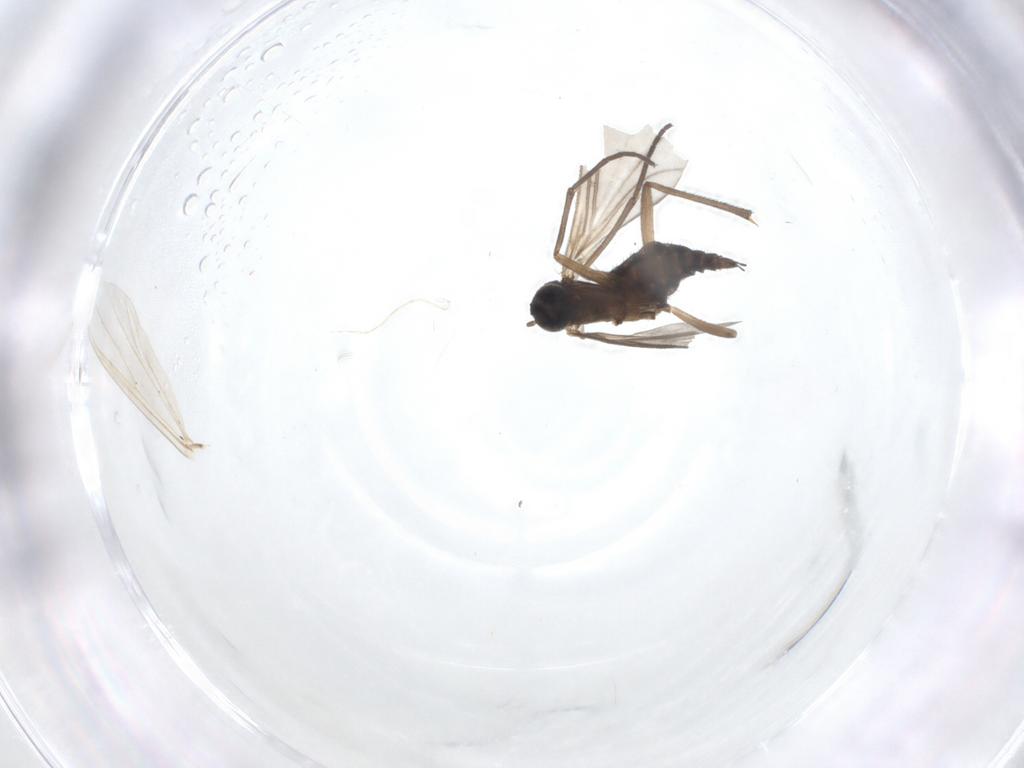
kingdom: Animalia
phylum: Arthropoda
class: Insecta
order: Diptera
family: Sciaridae
